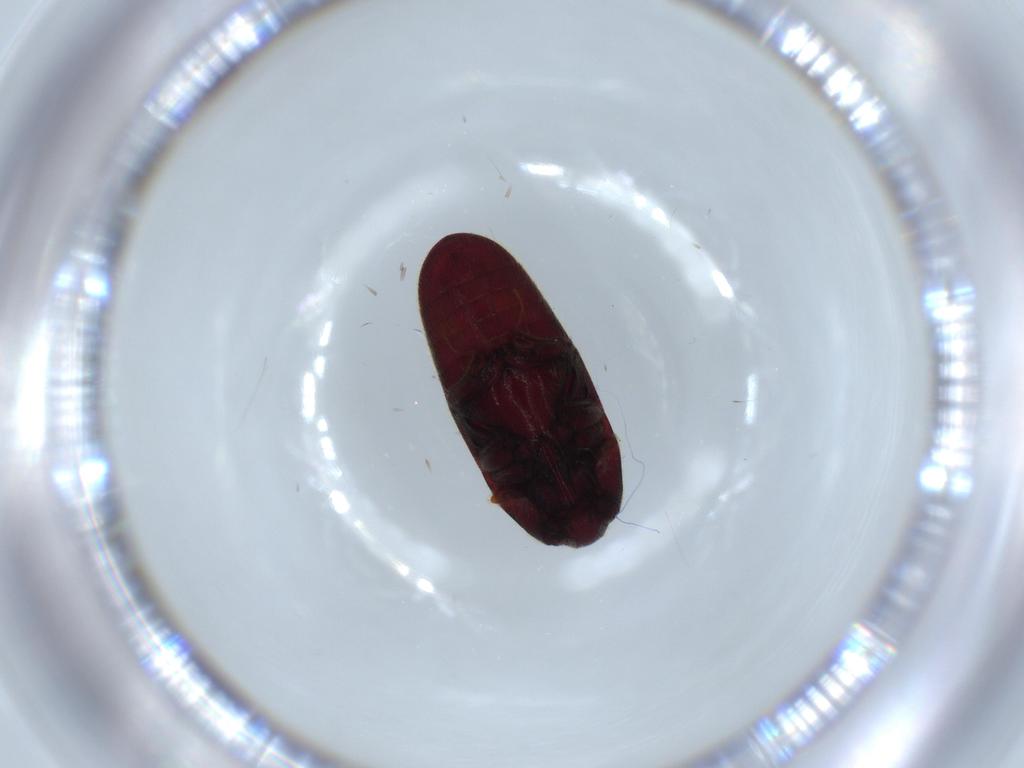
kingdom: Animalia
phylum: Arthropoda
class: Insecta
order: Coleoptera
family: Throscidae
